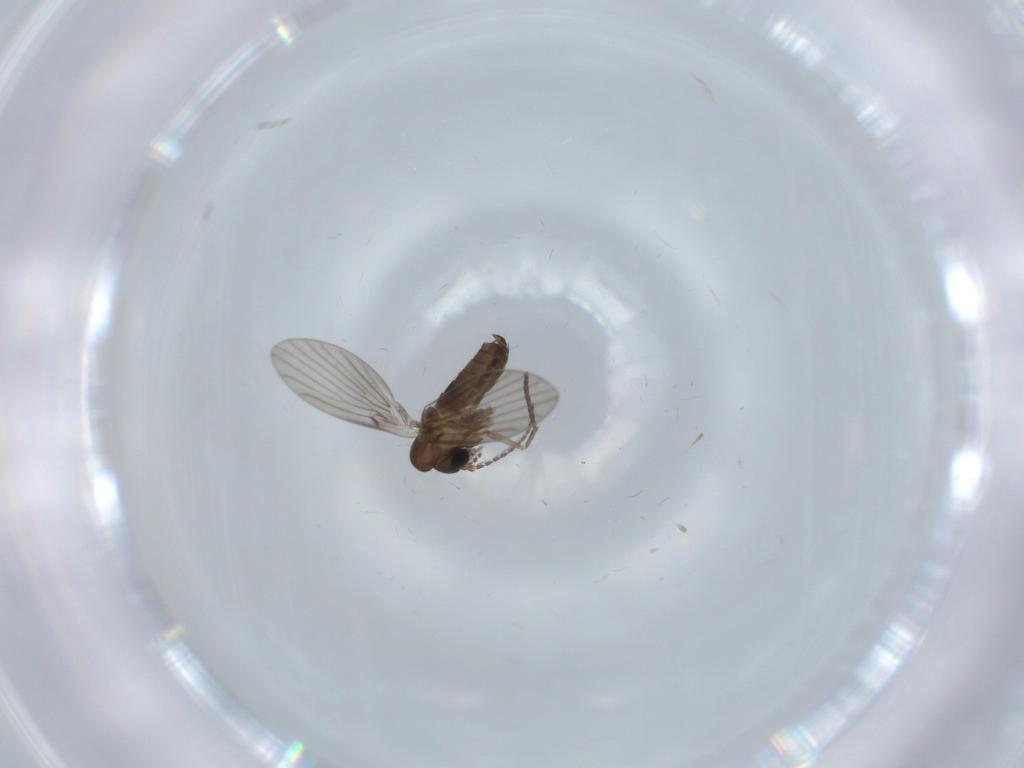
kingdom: Animalia
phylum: Arthropoda
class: Insecta
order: Diptera
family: Psychodidae
